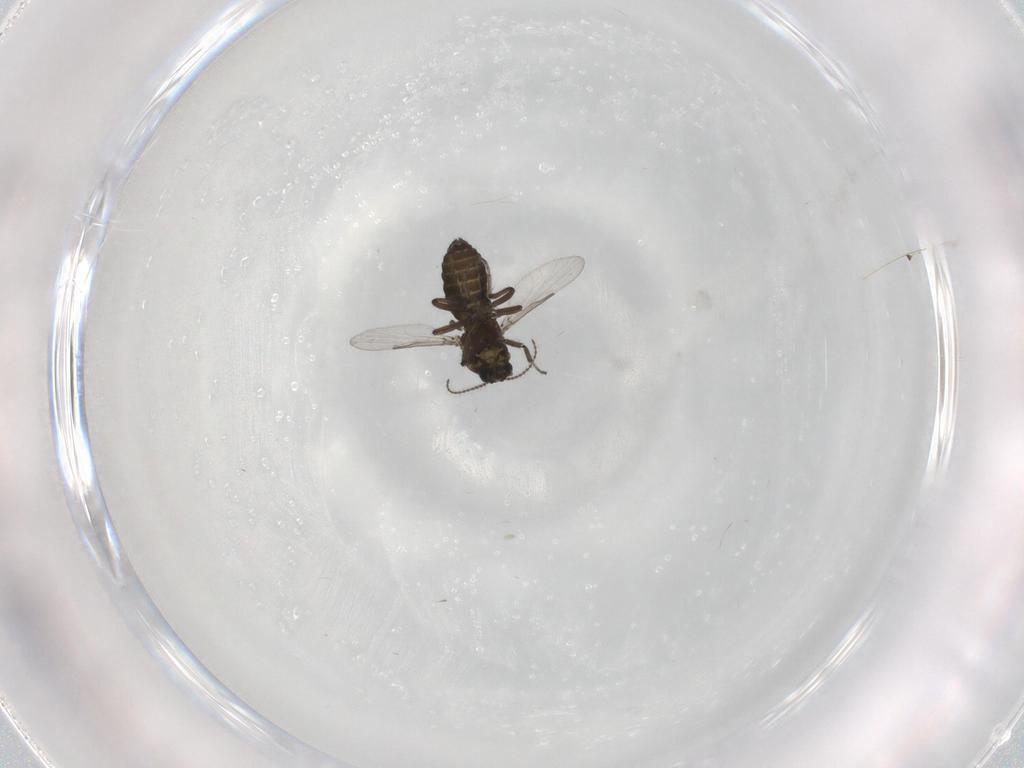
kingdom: Animalia
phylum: Arthropoda
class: Insecta
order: Diptera
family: Ceratopogonidae
